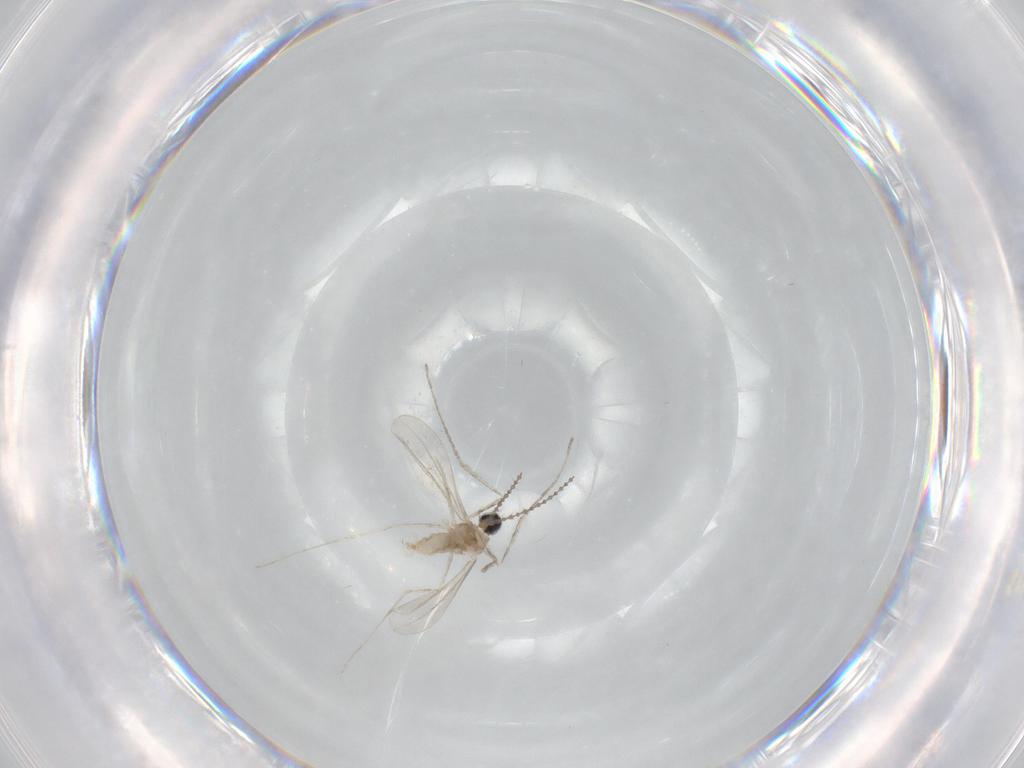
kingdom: Animalia
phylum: Arthropoda
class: Insecta
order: Diptera
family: Cecidomyiidae
